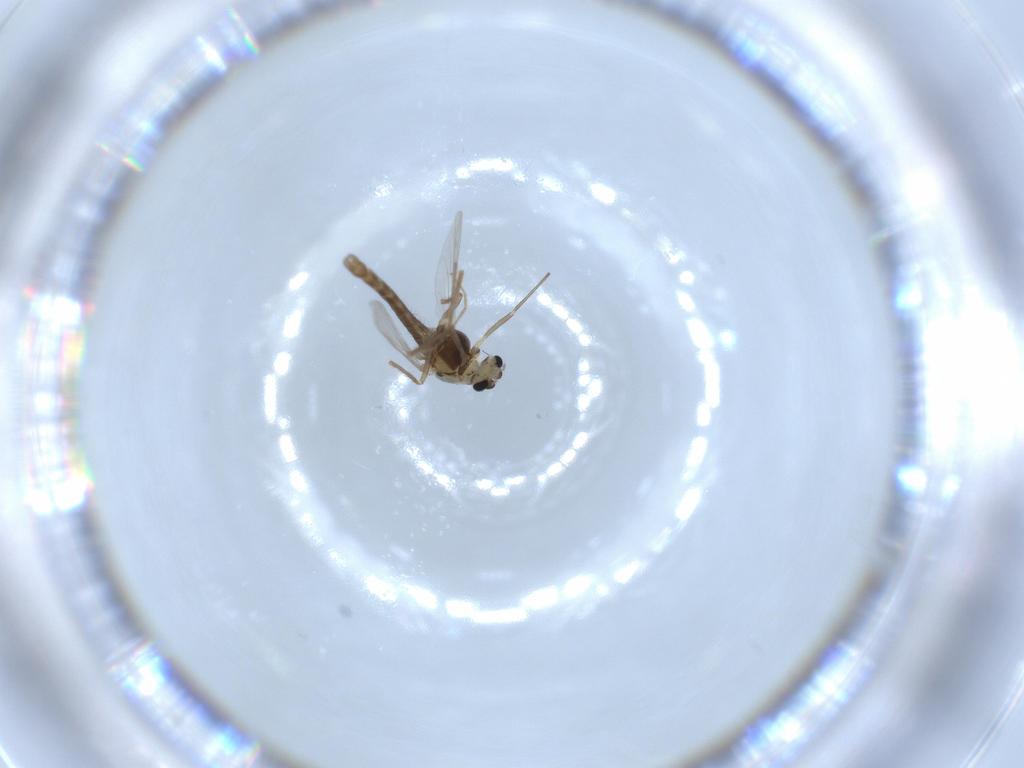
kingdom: Animalia
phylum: Arthropoda
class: Insecta
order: Diptera
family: Chironomidae
